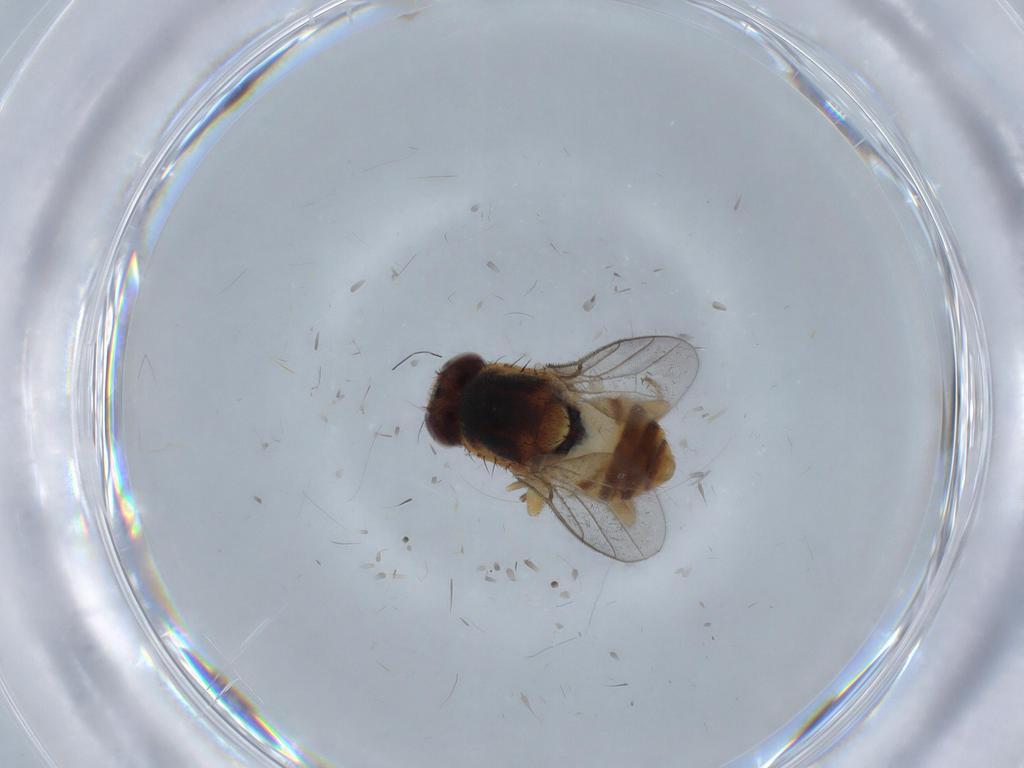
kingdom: Animalia
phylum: Arthropoda
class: Insecta
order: Diptera
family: Chloropidae
